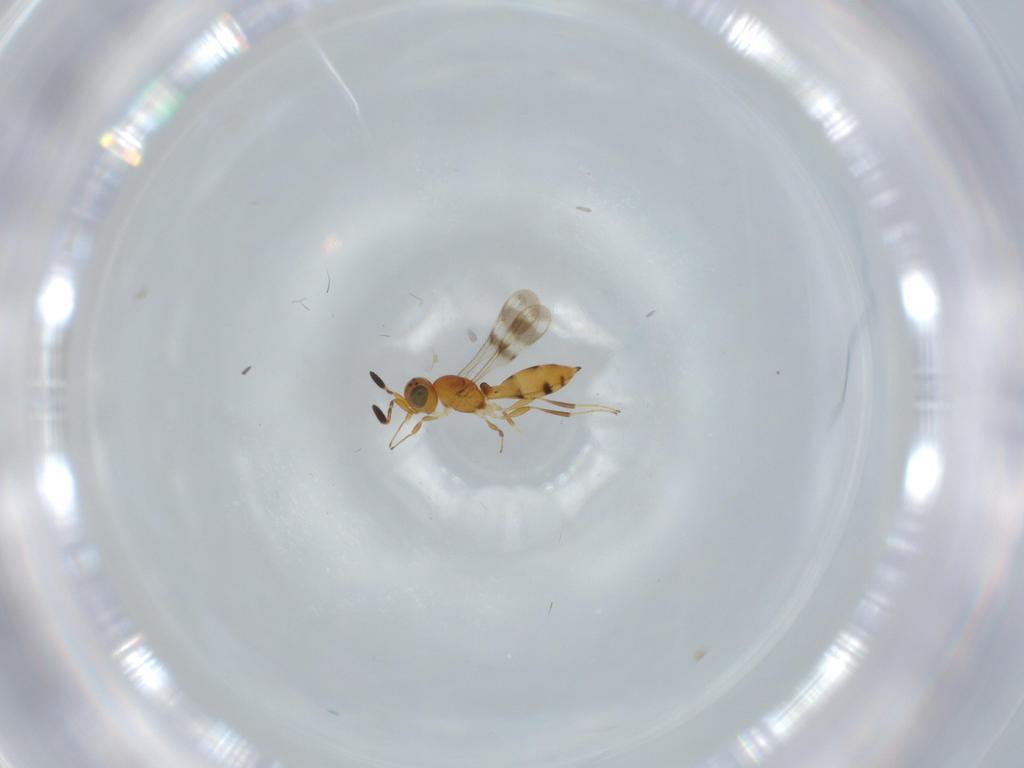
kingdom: Animalia
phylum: Arthropoda
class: Insecta
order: Hymenoptera
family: Scelionidae
